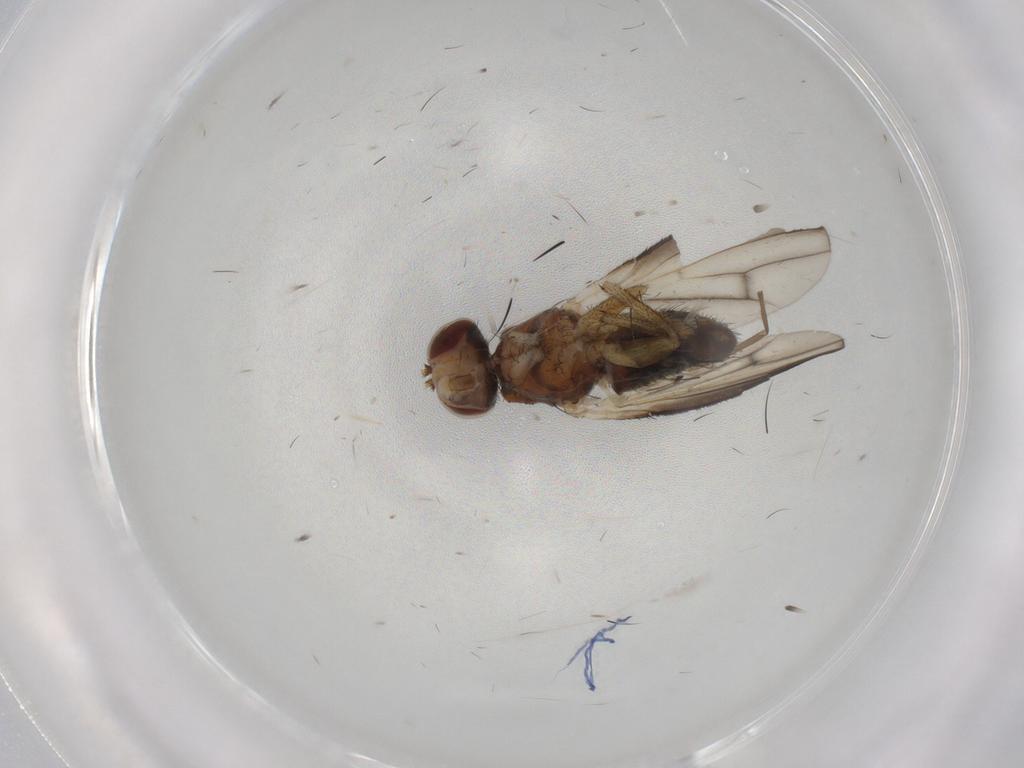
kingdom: Animalia
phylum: Arthropoda
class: Insecta
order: Diptera
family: Heleomyzidae
